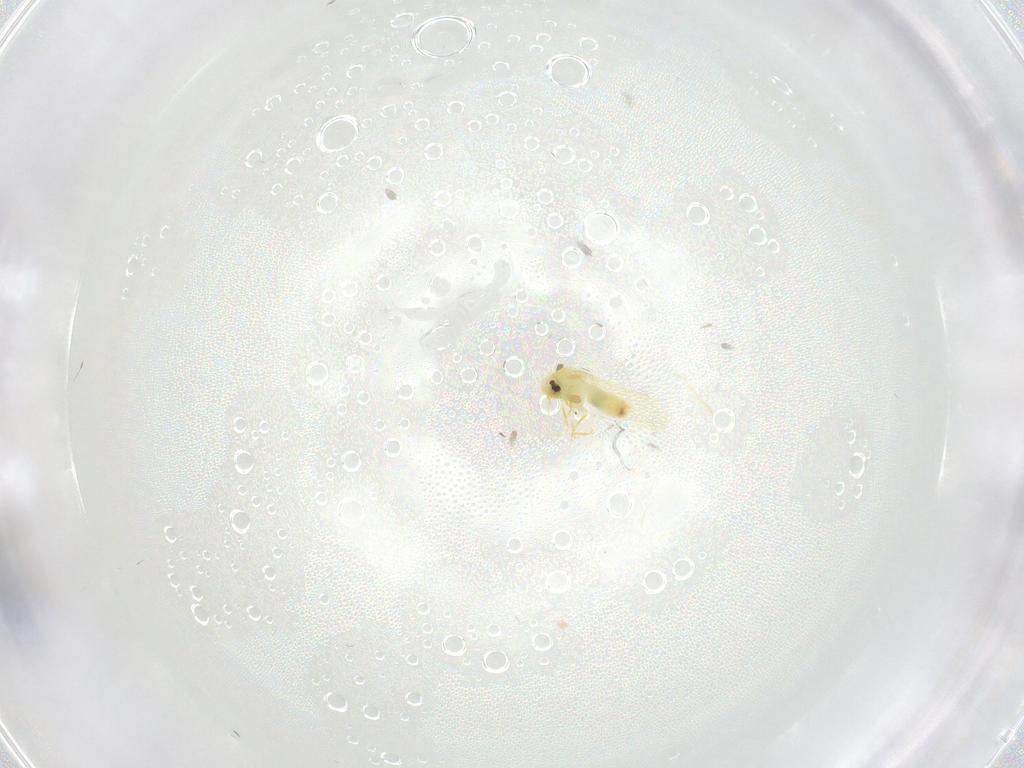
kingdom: Animalia
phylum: Arthropoda
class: Insecta
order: Hemiptera
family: Aleyrodidae
